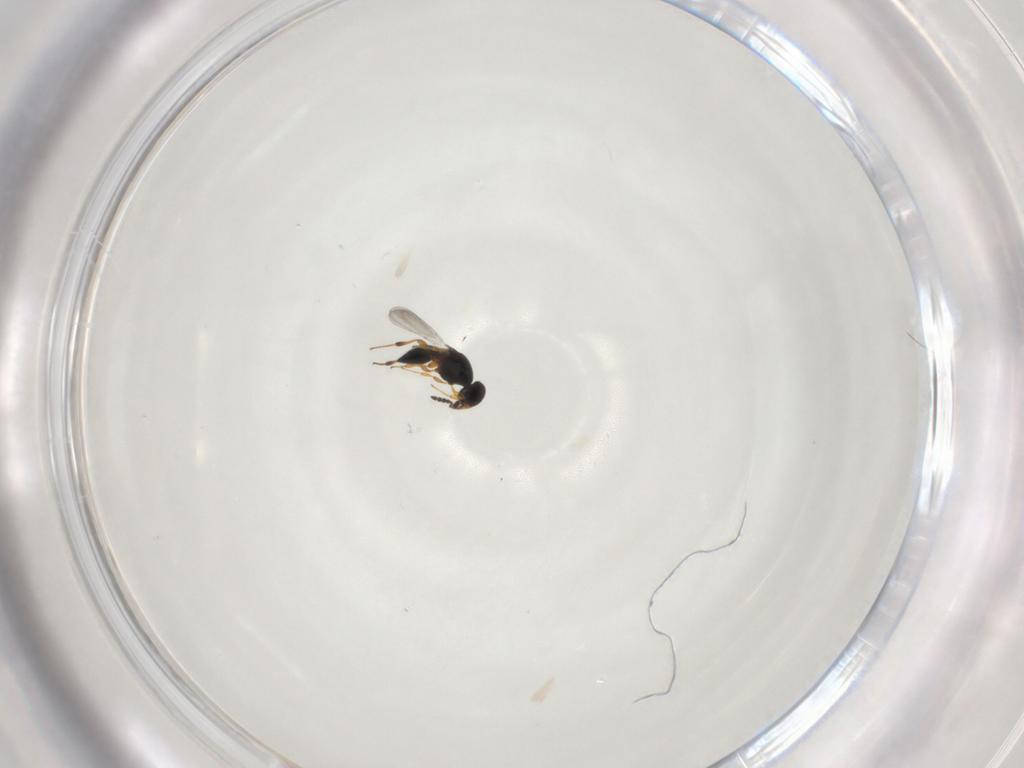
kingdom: Animalia
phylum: Arthropoda
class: Insecta
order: Hymenoptera
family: Platygastridae
